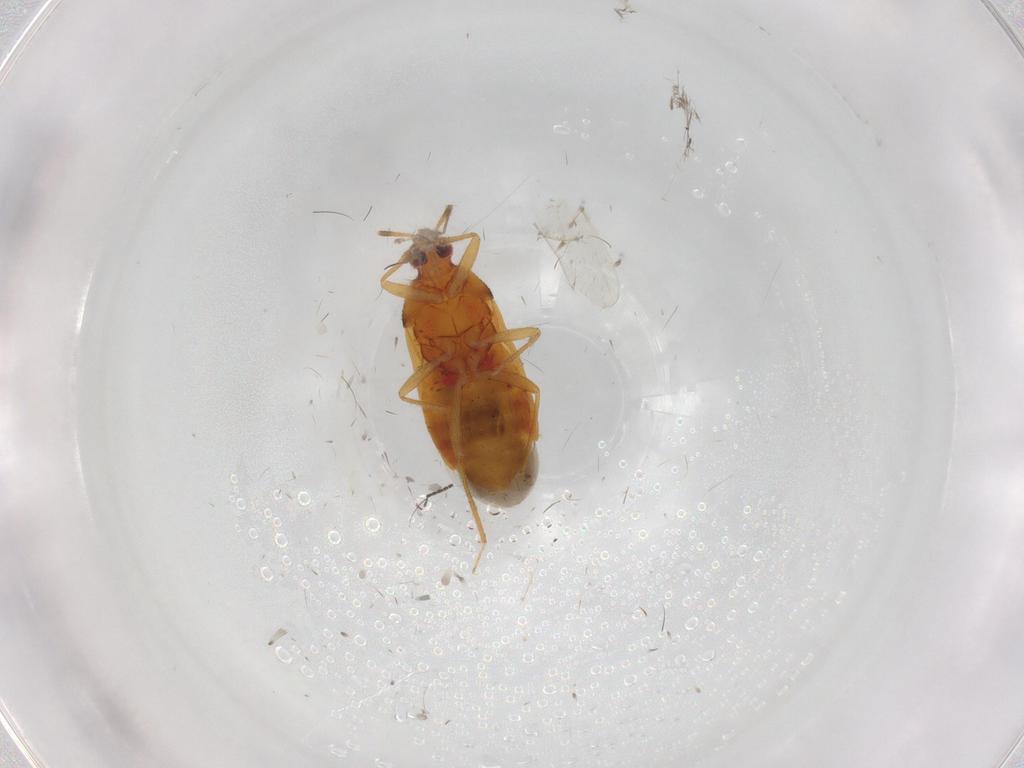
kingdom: Animalia
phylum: Arthropoda
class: Insecta
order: Hemiptera
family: Anthocoridae
